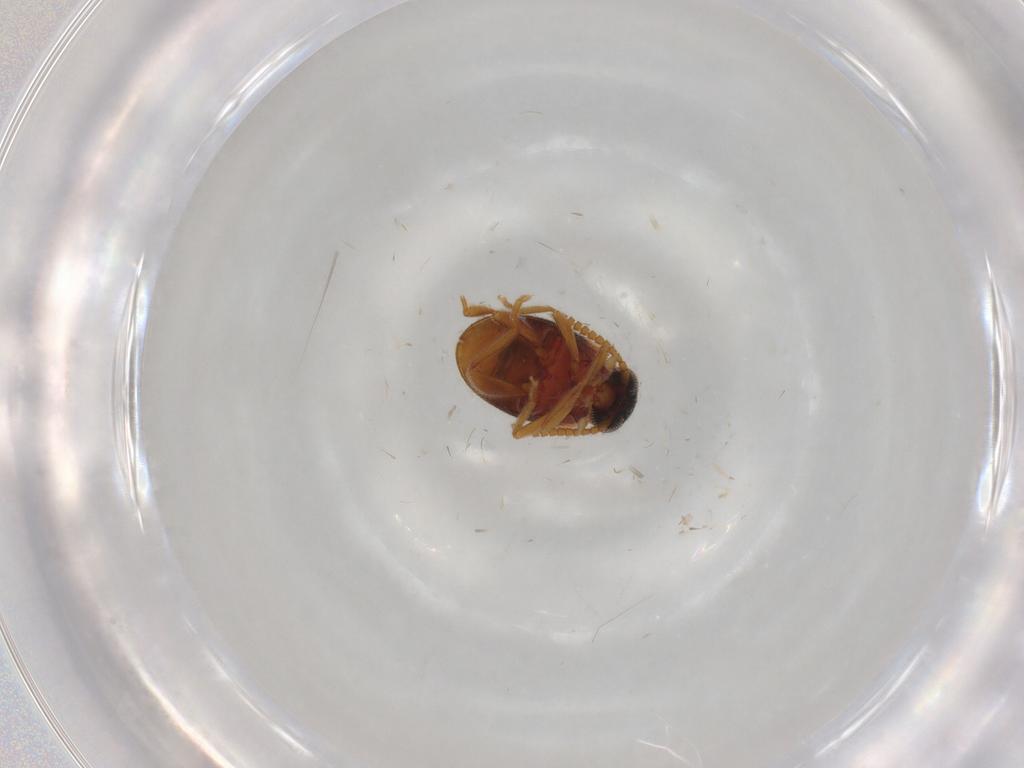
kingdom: Animalia
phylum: Arthropoda
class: Insecta
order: Coleoptera
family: Aderidae
